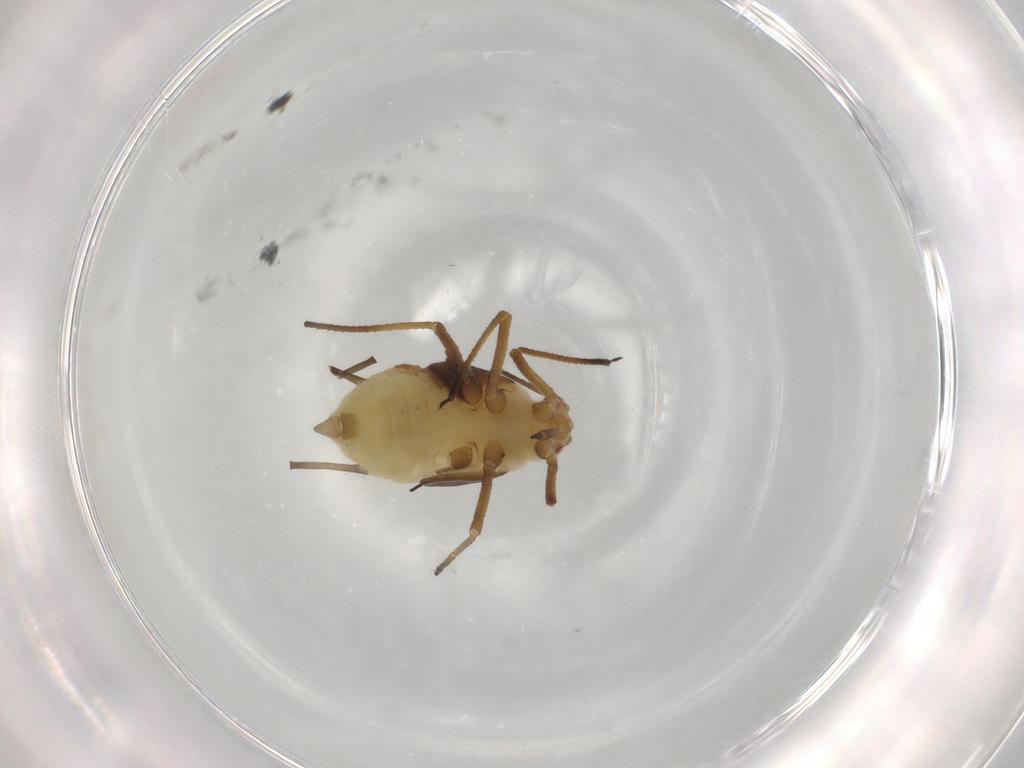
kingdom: Animalia
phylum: Arthropoda
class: Insecta
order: Hemiptera
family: Aphididae
